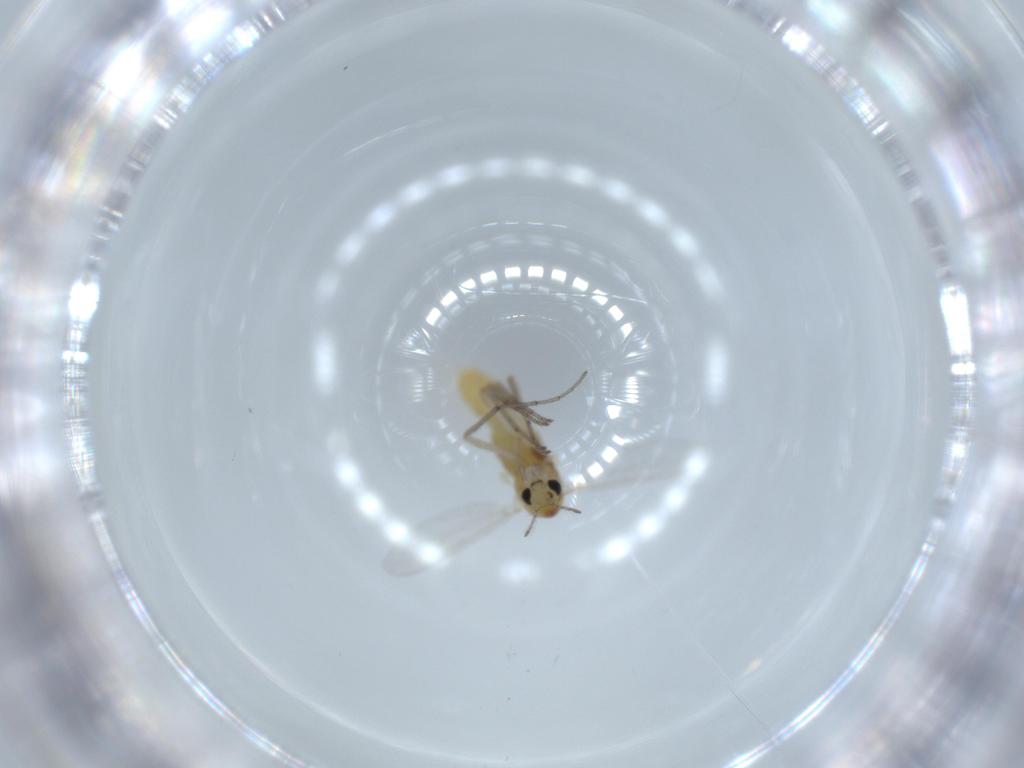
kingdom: Animalia
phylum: Arthropoda
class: Insecta
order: Diptera
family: Chironomidae
